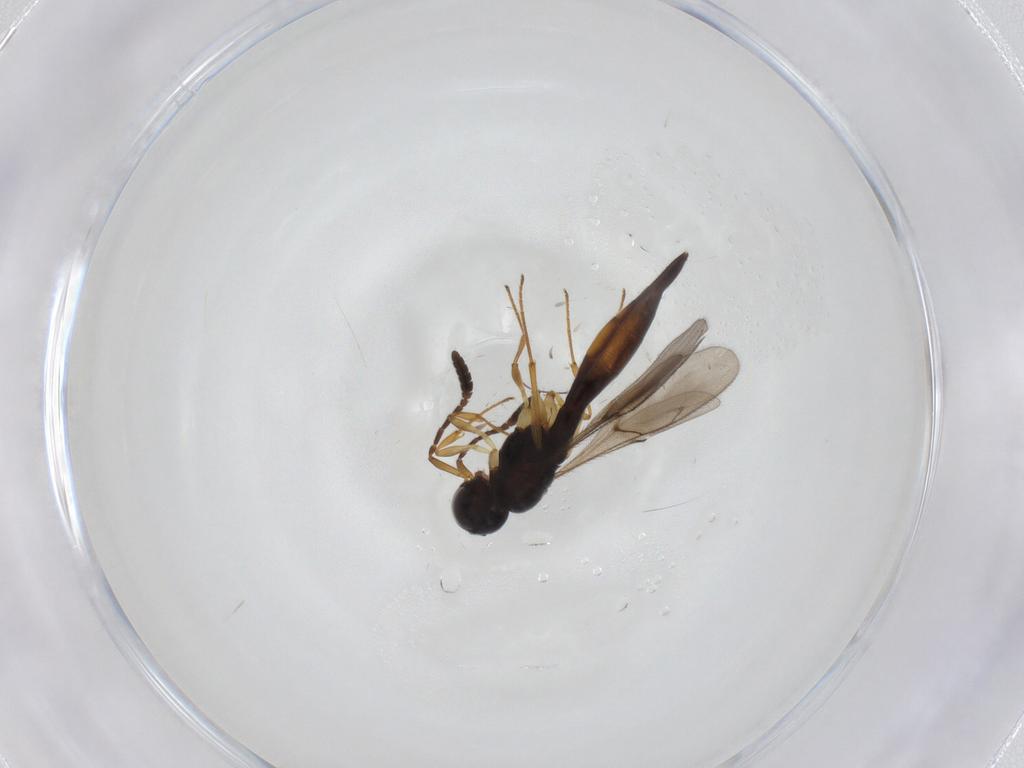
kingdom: Animalia
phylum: Arthropoda
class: Insecta
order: Hymenoptera
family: Scelionidae
